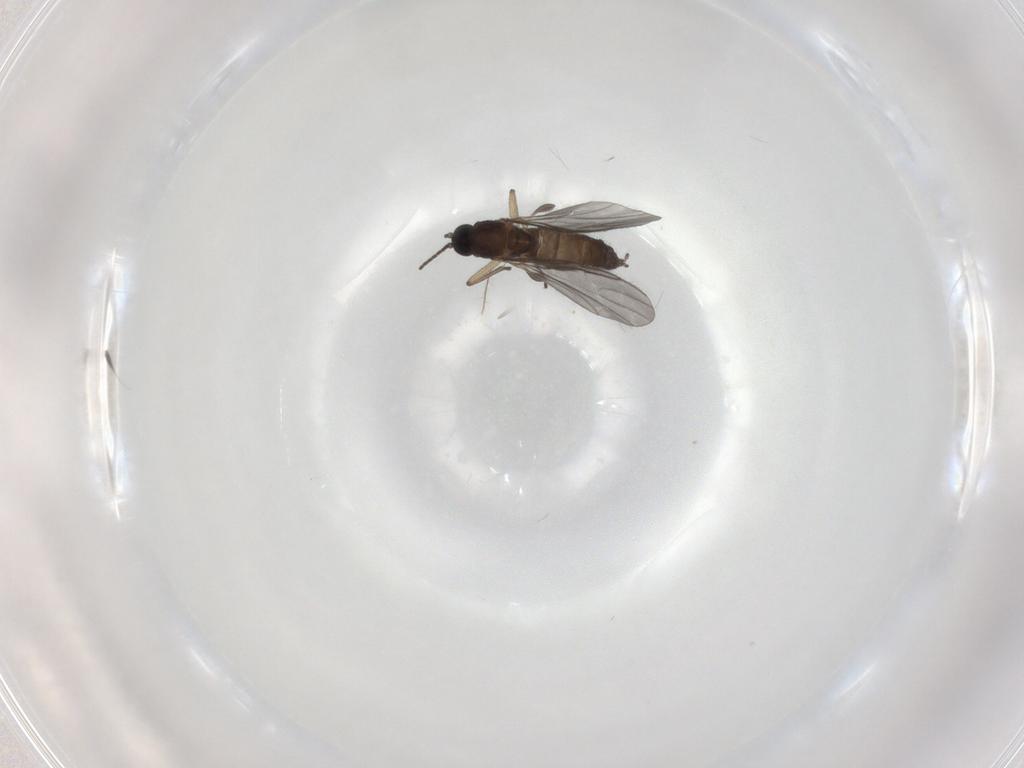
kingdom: Animalia
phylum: Arthropoda
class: Insecta
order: Diptera
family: Sciaridae
